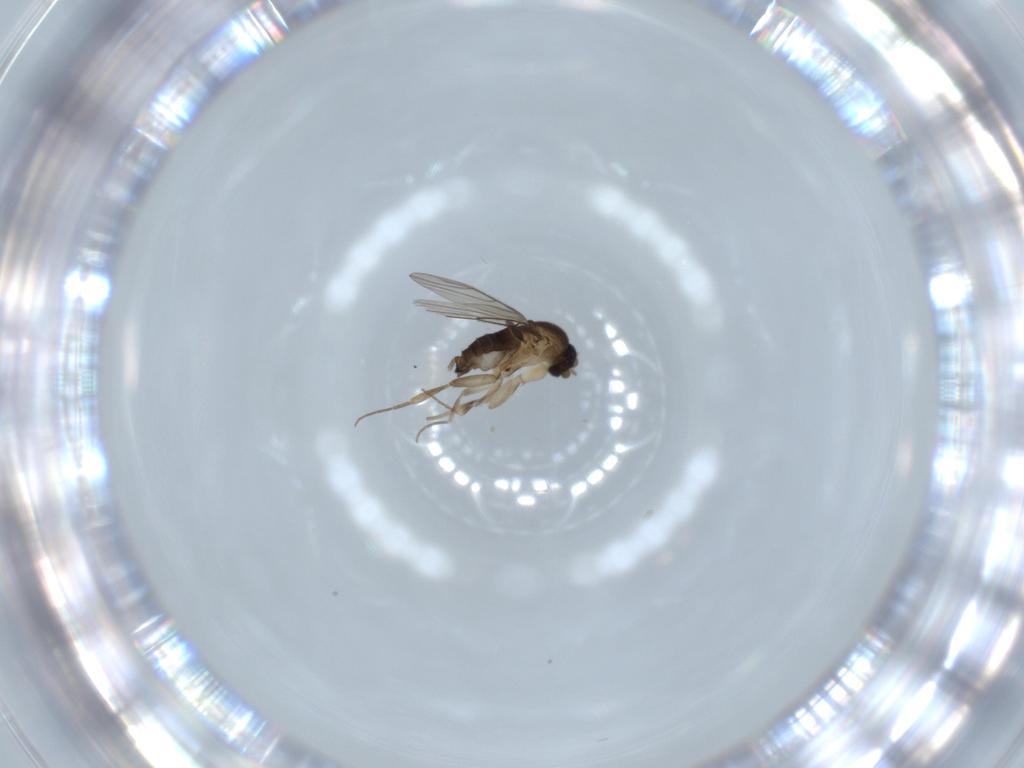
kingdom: Animalia
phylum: Arthropoda
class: Insecta
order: Diptera
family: Phoridae
